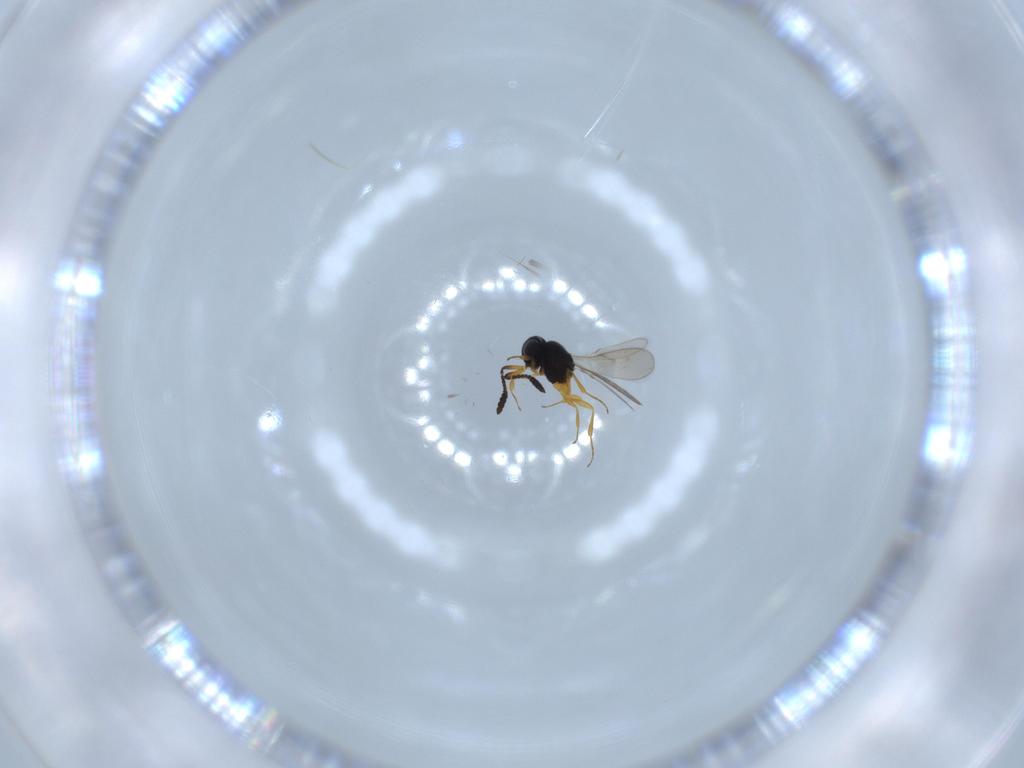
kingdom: Animalia
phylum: Arthropoda
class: Insecta
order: Hymenoptera
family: Scelionidae
